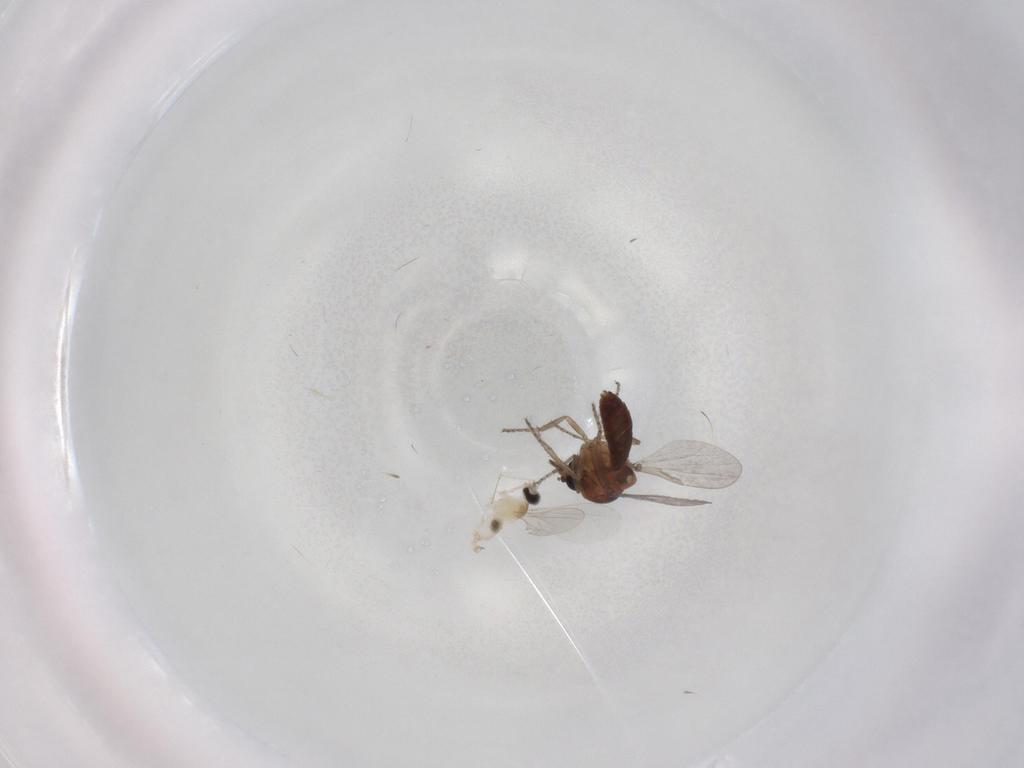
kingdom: Animalia
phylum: Arthropoda
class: Insecta
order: Diptera
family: Cecidomyiidae
